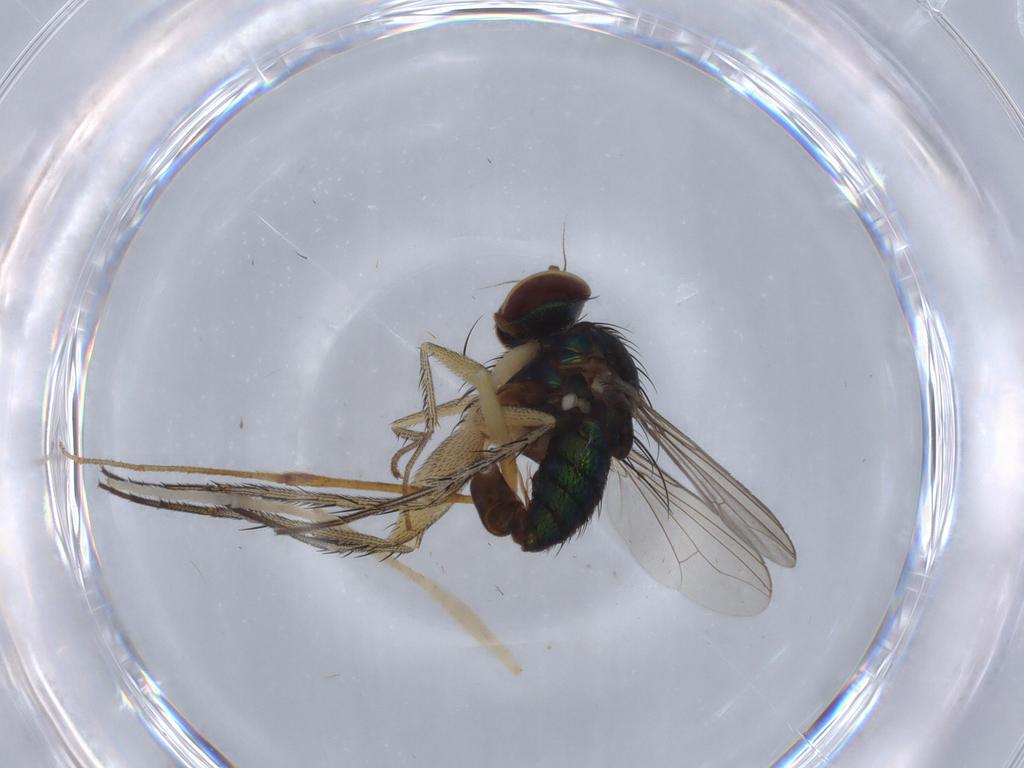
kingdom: Animalia
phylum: Arthropoda
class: Insecta
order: Diptera
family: Dolichopodidae
